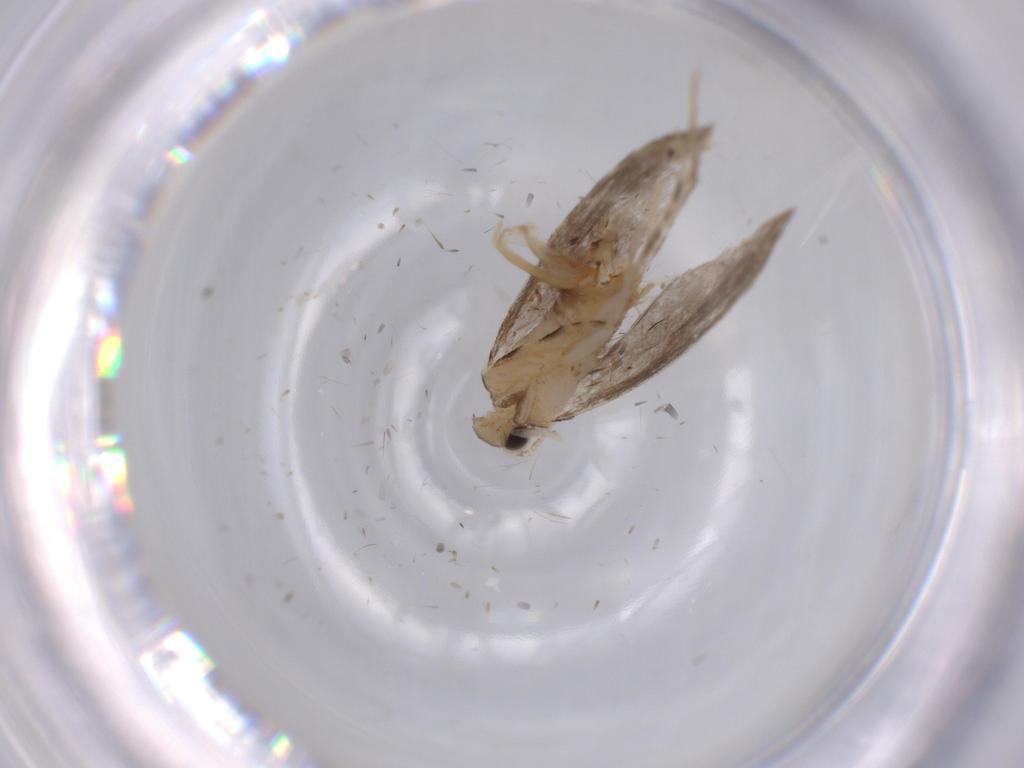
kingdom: Animalia
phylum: Arthropoda
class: Insecta
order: Lepidoptera
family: Tineidae
